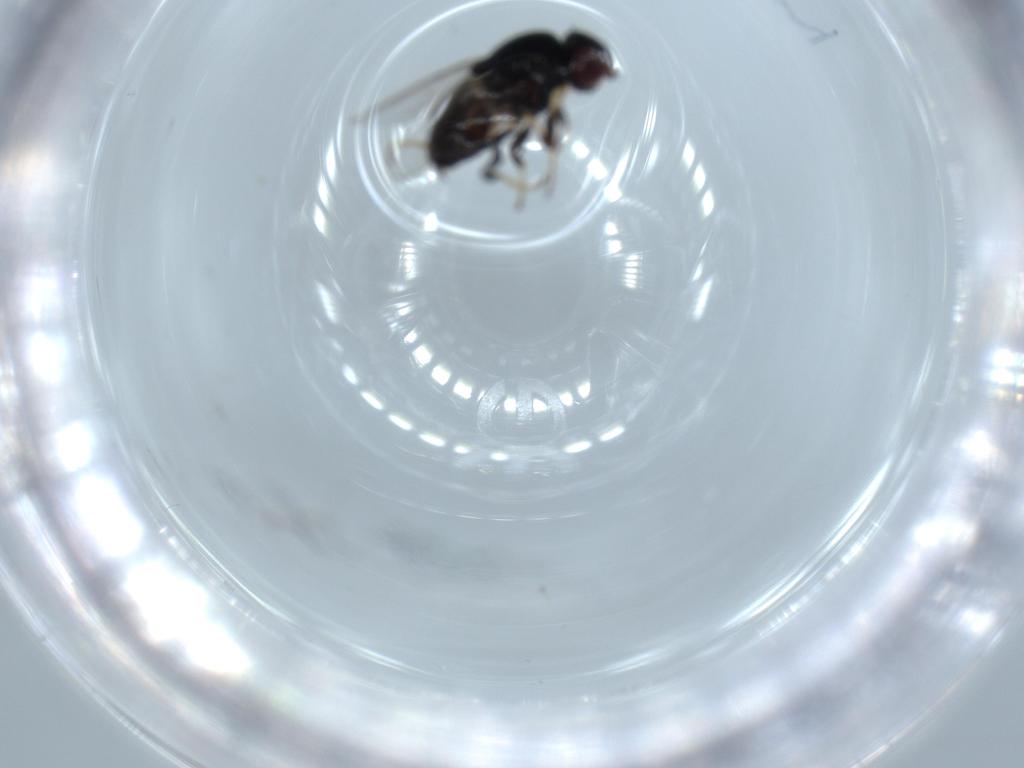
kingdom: Animalia
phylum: Arthropoda
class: Insecta
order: Diptera
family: Chloropidae
